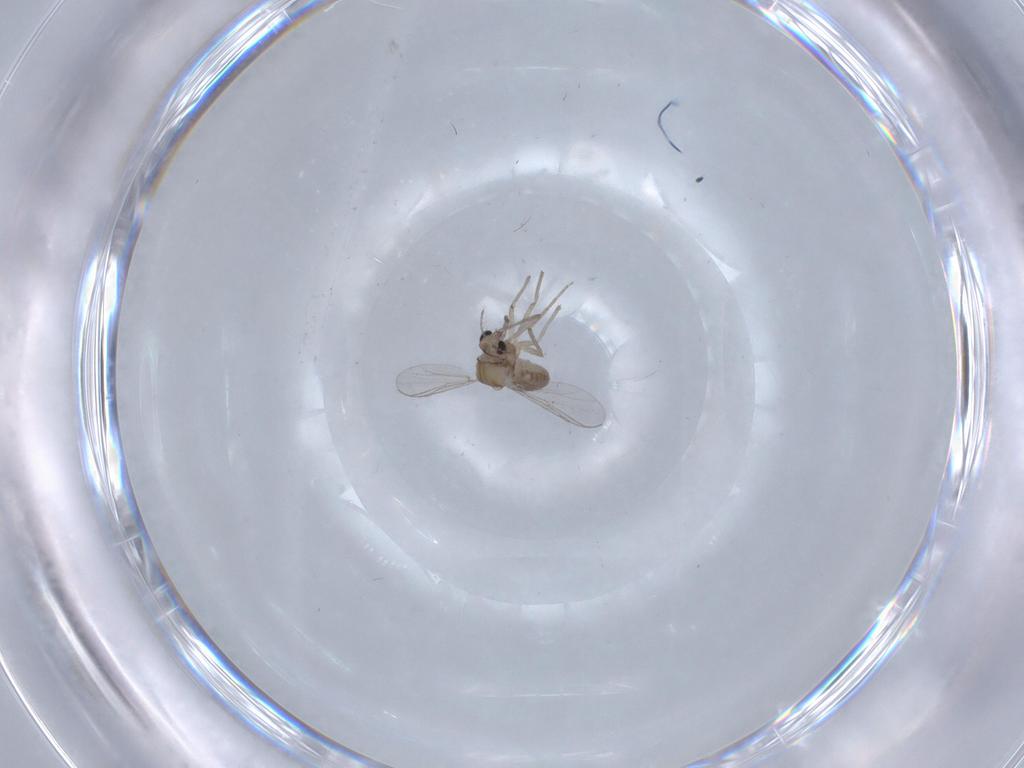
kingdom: Animalia
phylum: Arthropoda
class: Insecta
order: Diptera
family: Chironomidae
